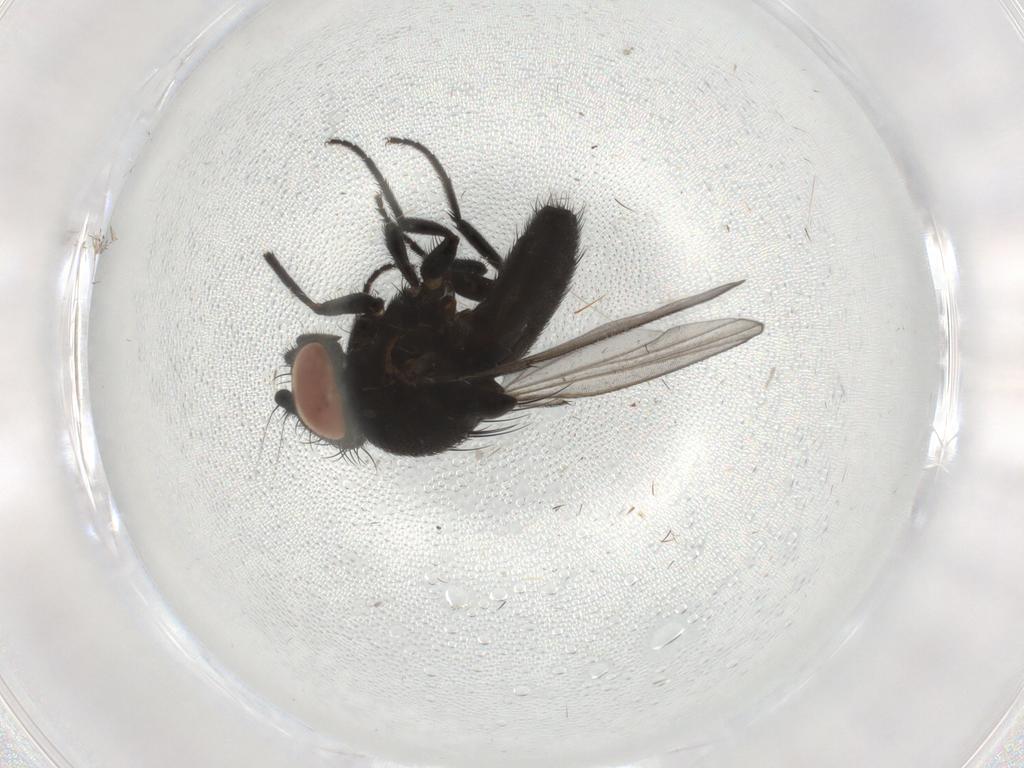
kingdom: Animalia
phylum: Arthropoda
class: Insecta
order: Diptera
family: Milichiidae
